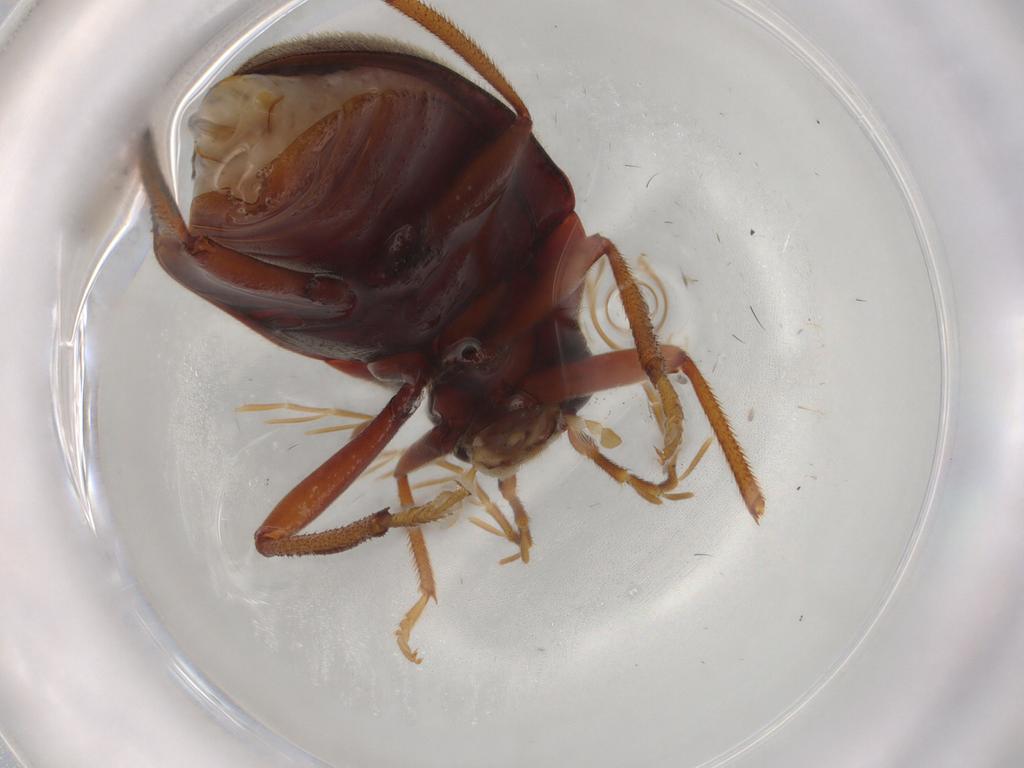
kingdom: Animalia
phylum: Arthropoda
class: Insecta
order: Coleoptera
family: Ptilodactylidae
